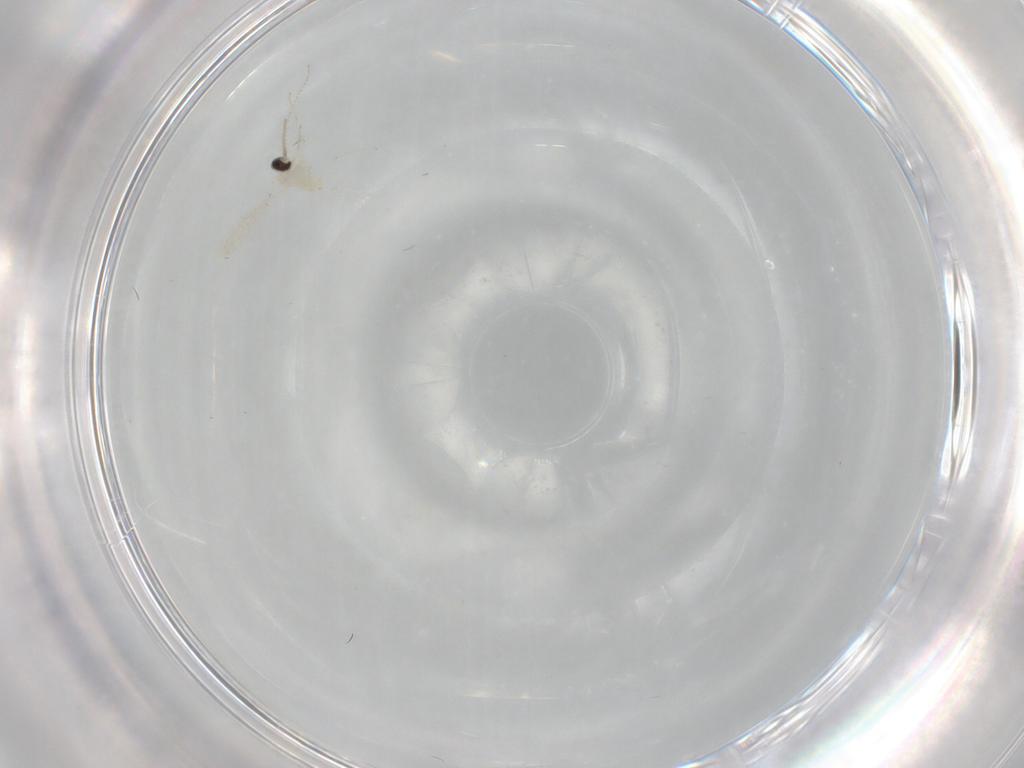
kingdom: Animalia
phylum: Arthropoda
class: Insecta
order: Diptera
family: Cecidomyiidae
